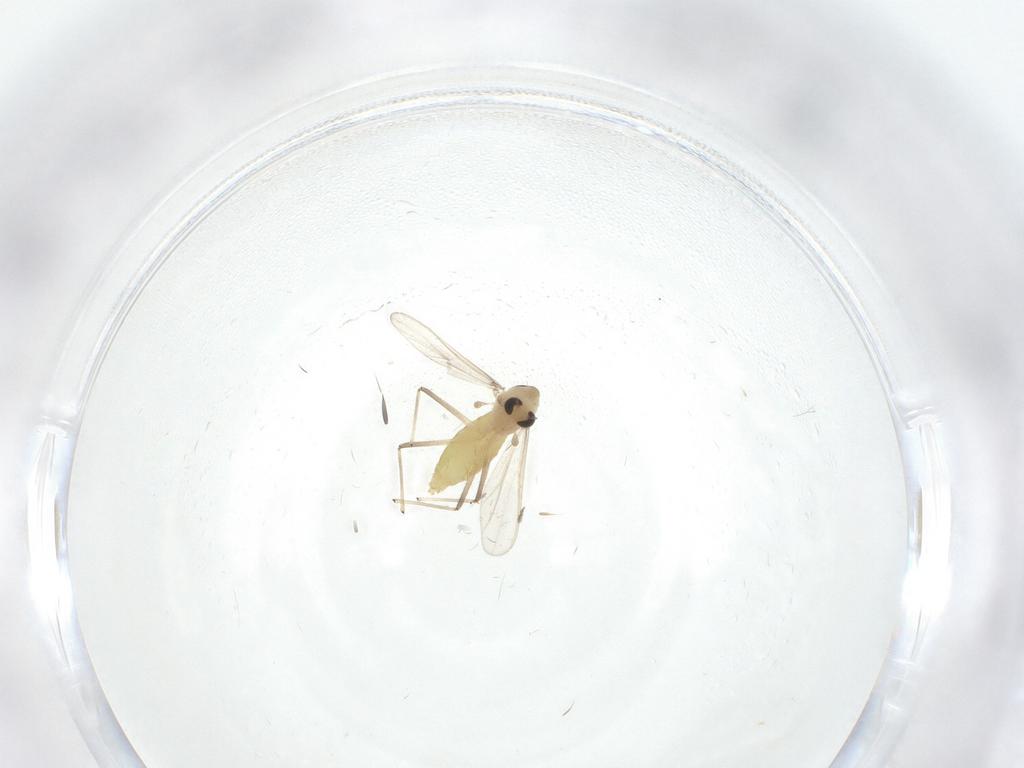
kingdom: Animalia
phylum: Arthropoda
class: Insecta
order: Diptera
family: Chironomidae
